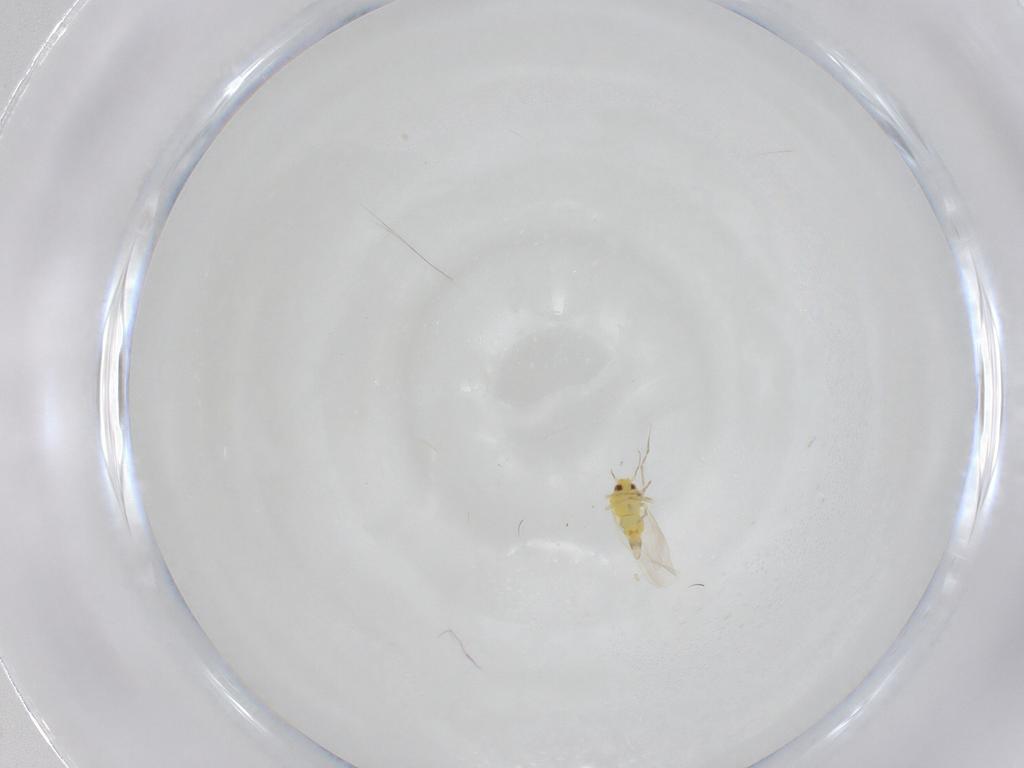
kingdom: Animalia
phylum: Arthropoda
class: Insecta
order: Hemiptera
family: Aleyrodidae
